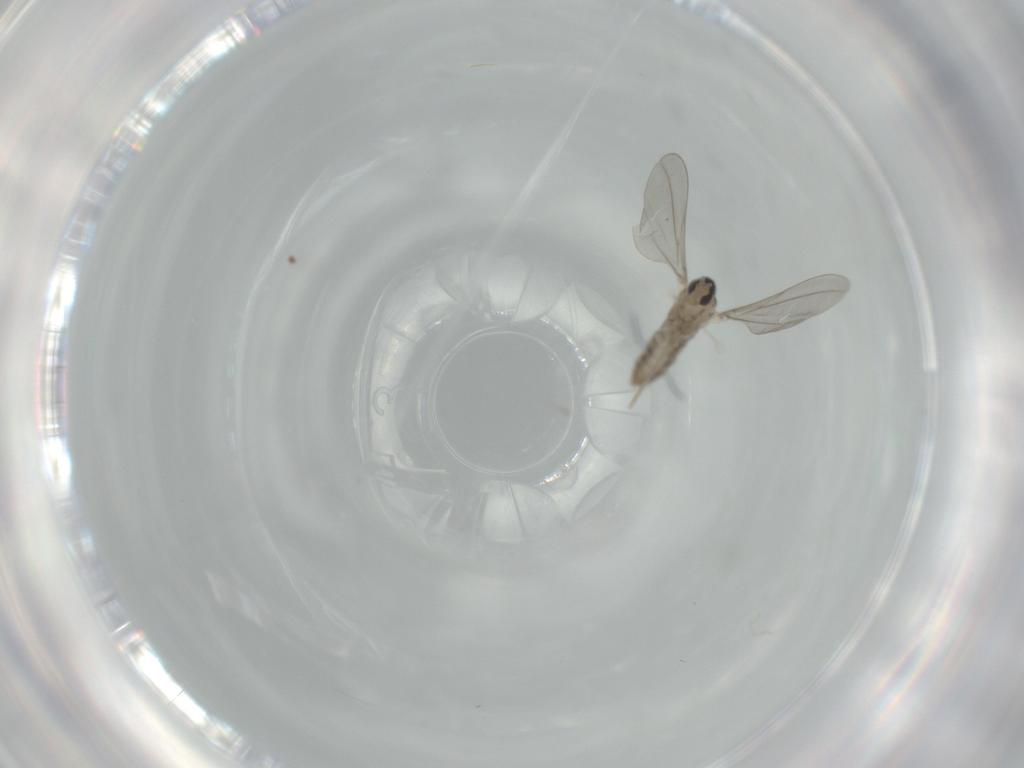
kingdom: Animalia
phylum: Arthropoda
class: Insecta
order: Diptera
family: Cecidomyiidae
